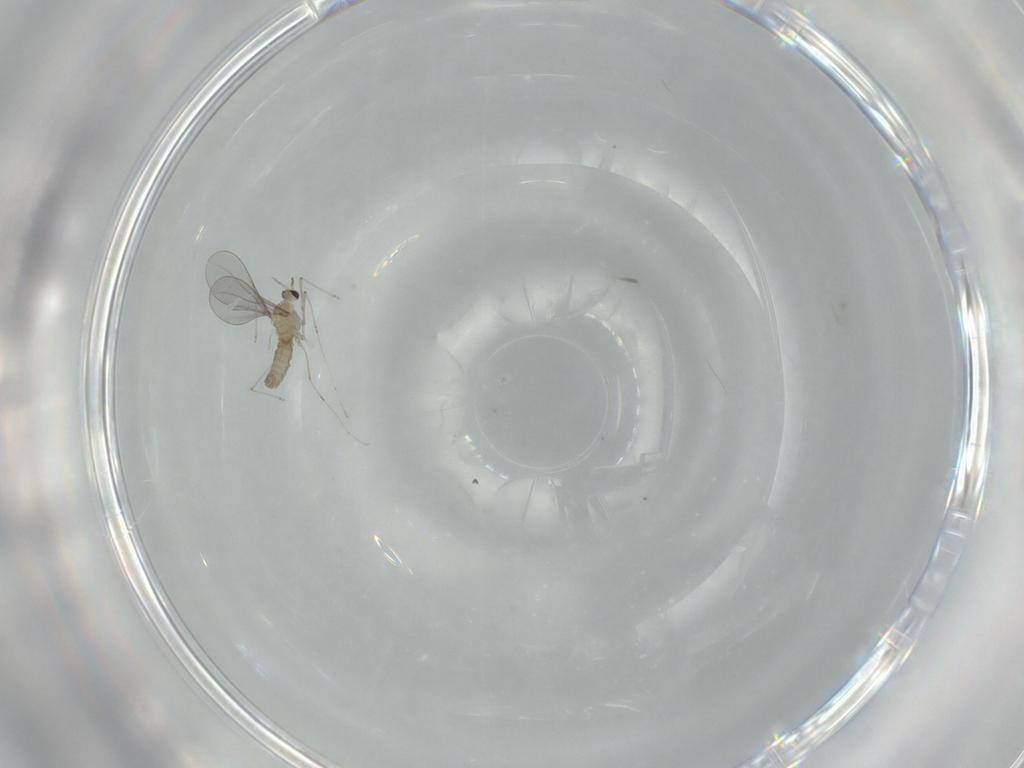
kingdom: Animalia
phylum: Arthropoda
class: Insecta
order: Diptera
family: Cecidomyiidae
